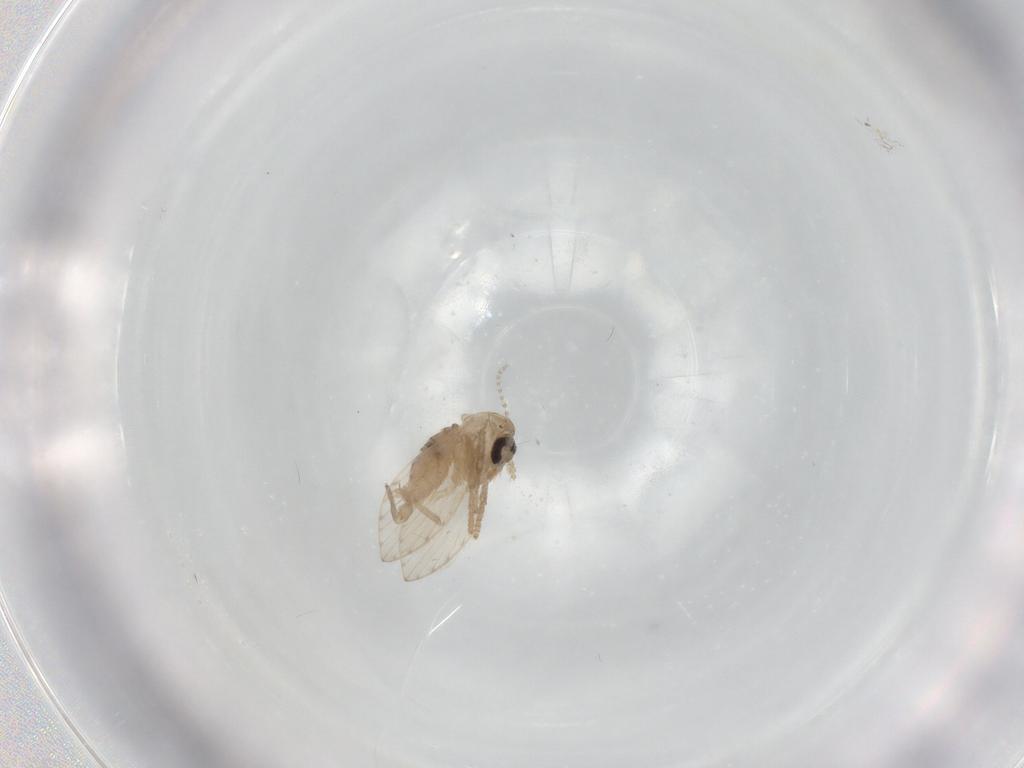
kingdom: Animalia
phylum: Arthropoda
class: Insecta
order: Diptera
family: Psychodidae
